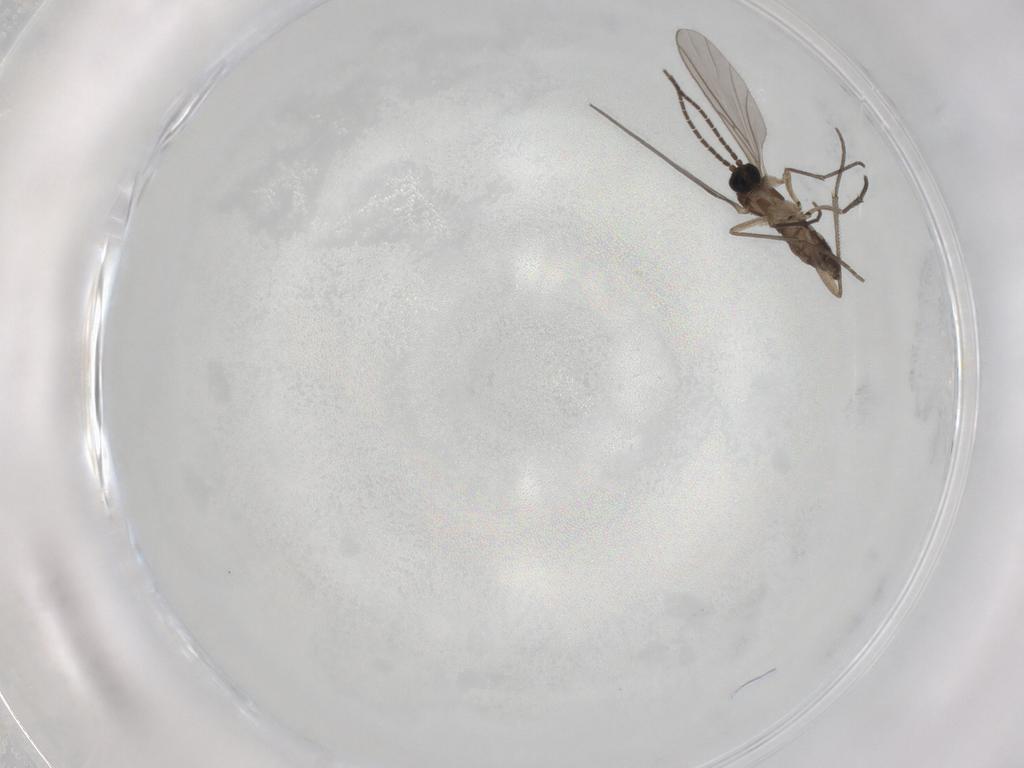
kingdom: Animalia
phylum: Arthropoda
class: Insecta
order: Diptera
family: Sciaridae
